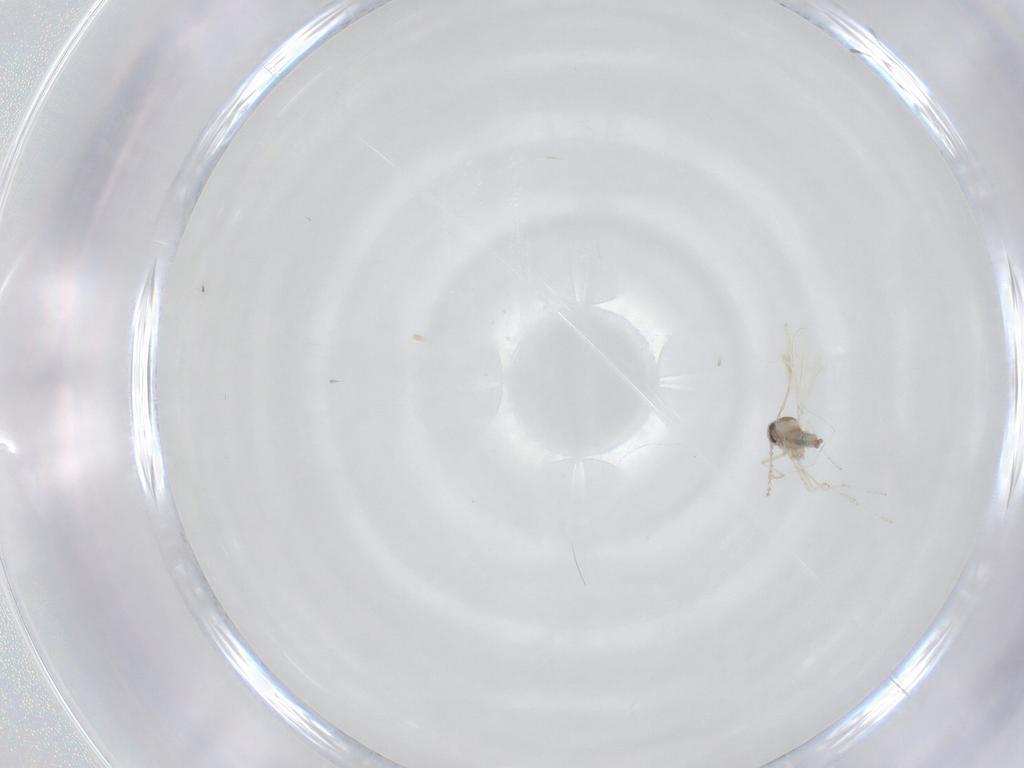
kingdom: Animalia
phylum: Arthropoda
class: Insecta
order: Diptera
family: Cecidomyiidae
